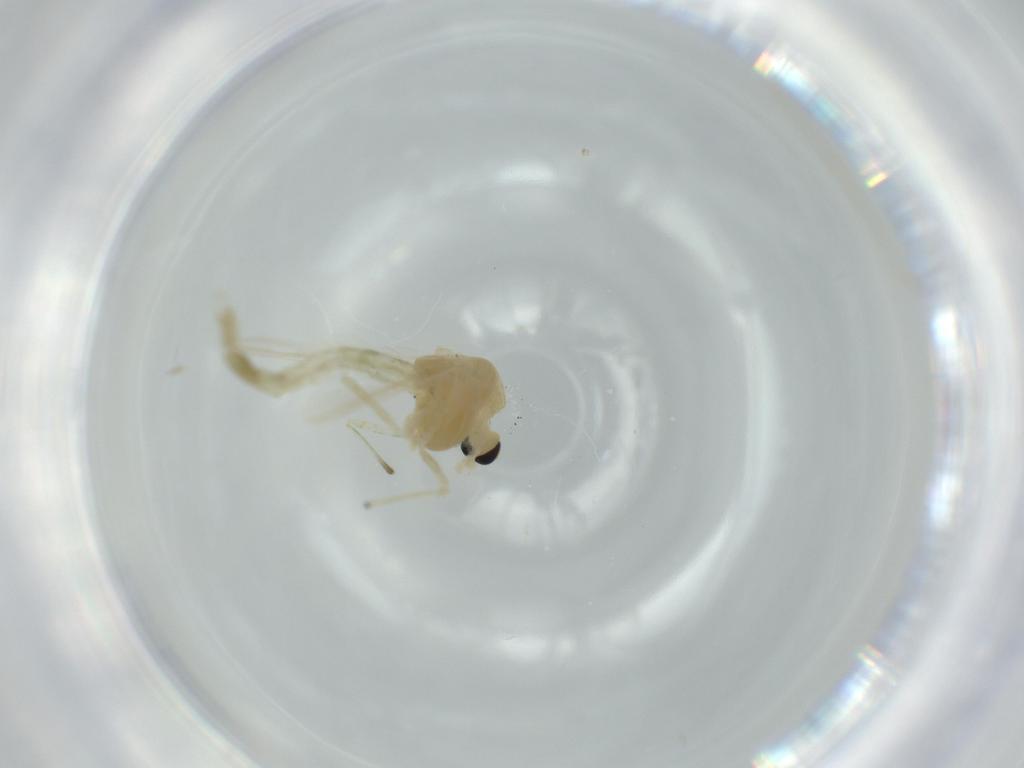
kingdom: Animalia
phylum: Arthropoda
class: Insecta
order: Diptera
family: Chironomidae
